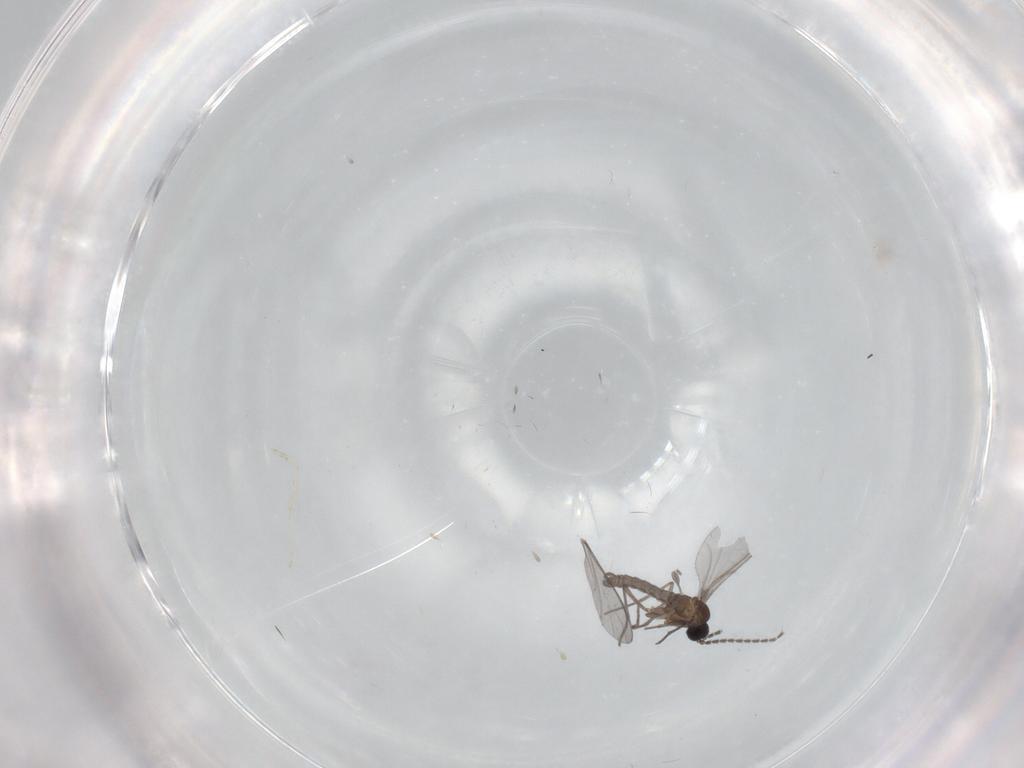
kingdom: Animalia
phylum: Arthropoda
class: Insecta
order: Diptera
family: Sciaridae
